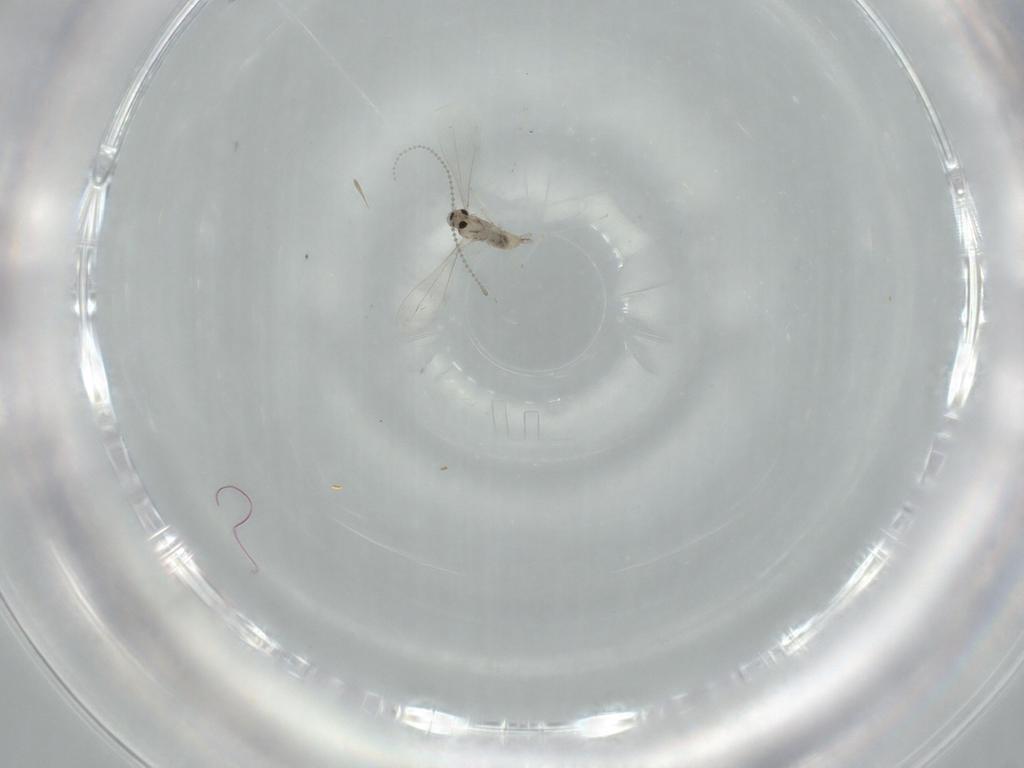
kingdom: Animalia
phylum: Arthropoda
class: Insecta
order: Diptera
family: Cecidomyiidae
